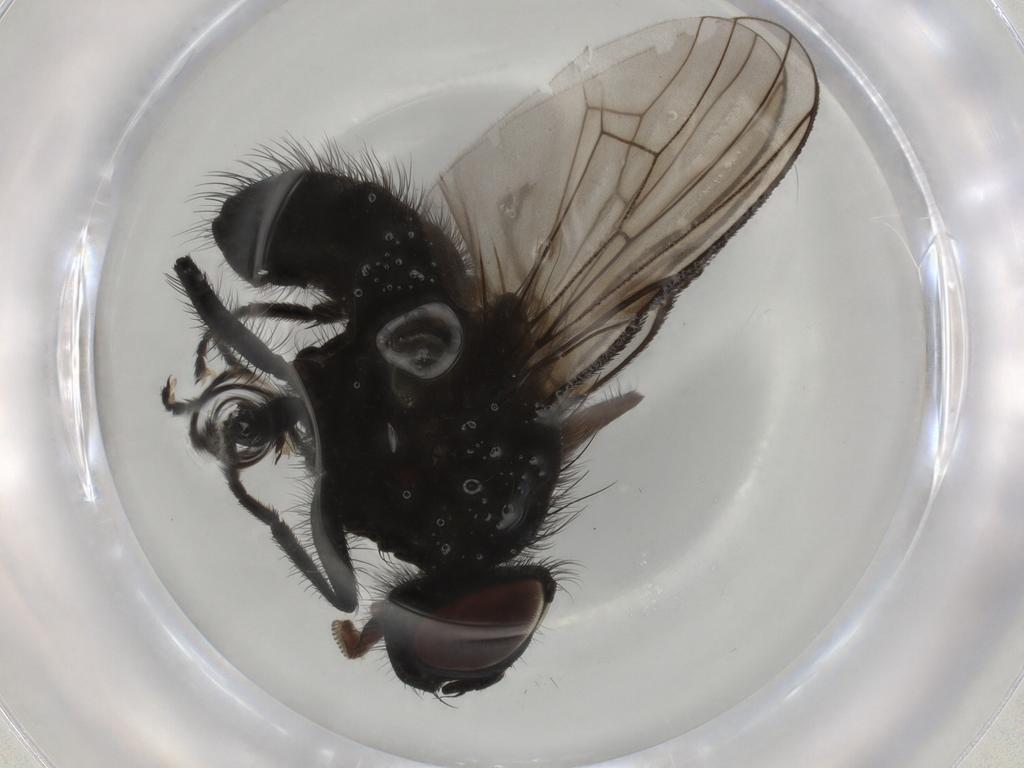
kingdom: Animalia
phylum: Arthropoda
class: Insecta
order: Diptera
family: Muscidae
